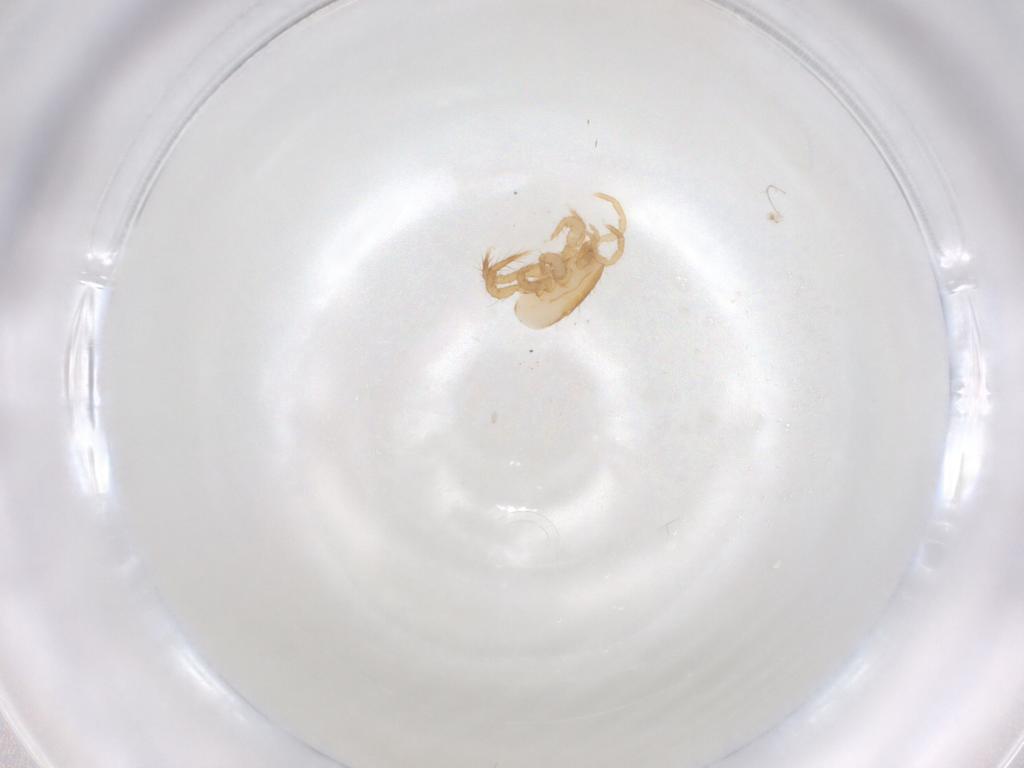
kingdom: Animalia
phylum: Arthropoda
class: Arachnida
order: Mesostigmata
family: Parasitidae
